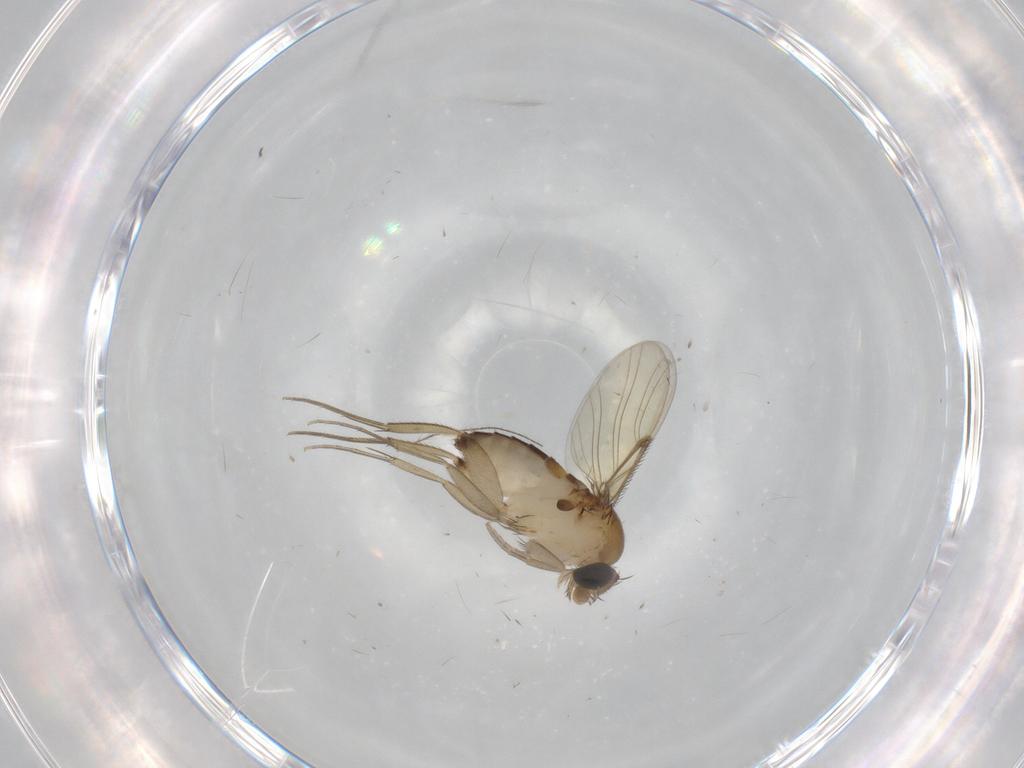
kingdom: Animalia
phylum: Arthropoda
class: Insecta
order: Diptera
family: Phoridae
